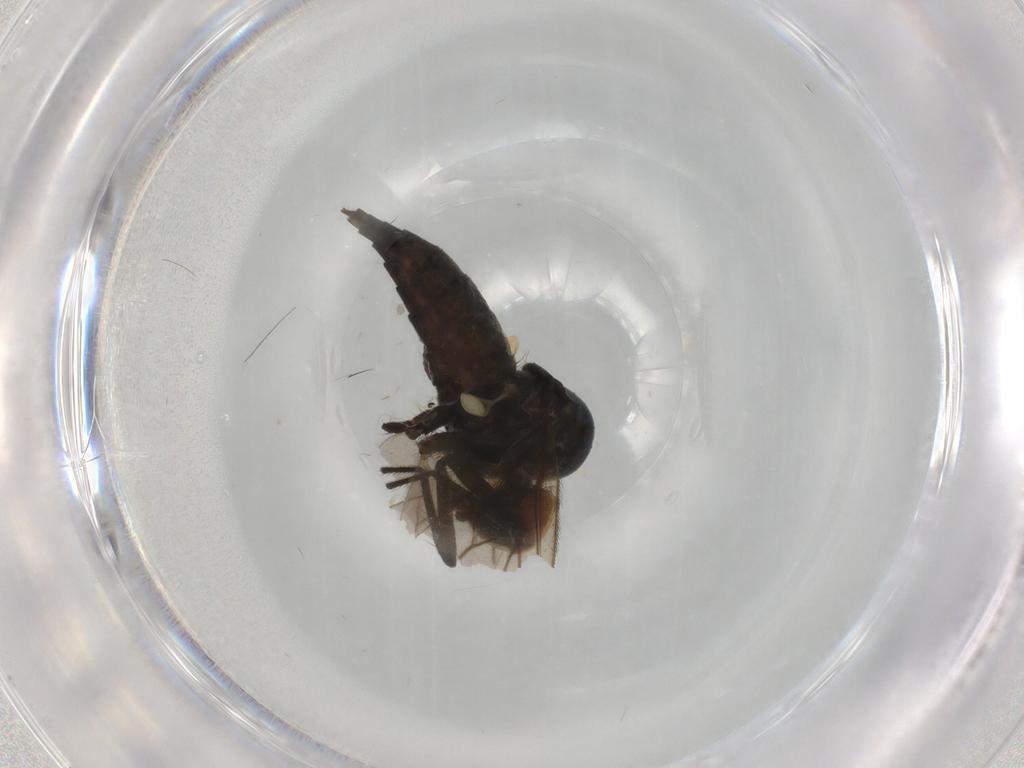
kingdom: Animalia
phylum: Arthropoda
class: Insecta
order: Diptera
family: Hybotidae
